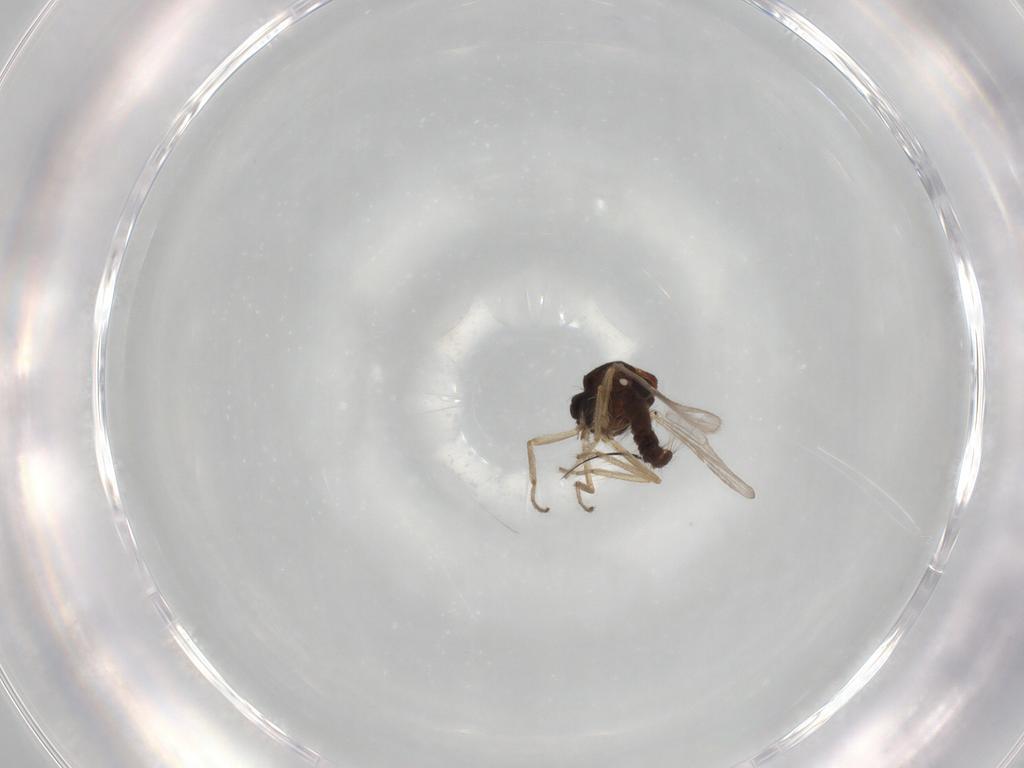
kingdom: Animalia
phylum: Arthropoda
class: Insecta
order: Diptera
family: Muscidae
